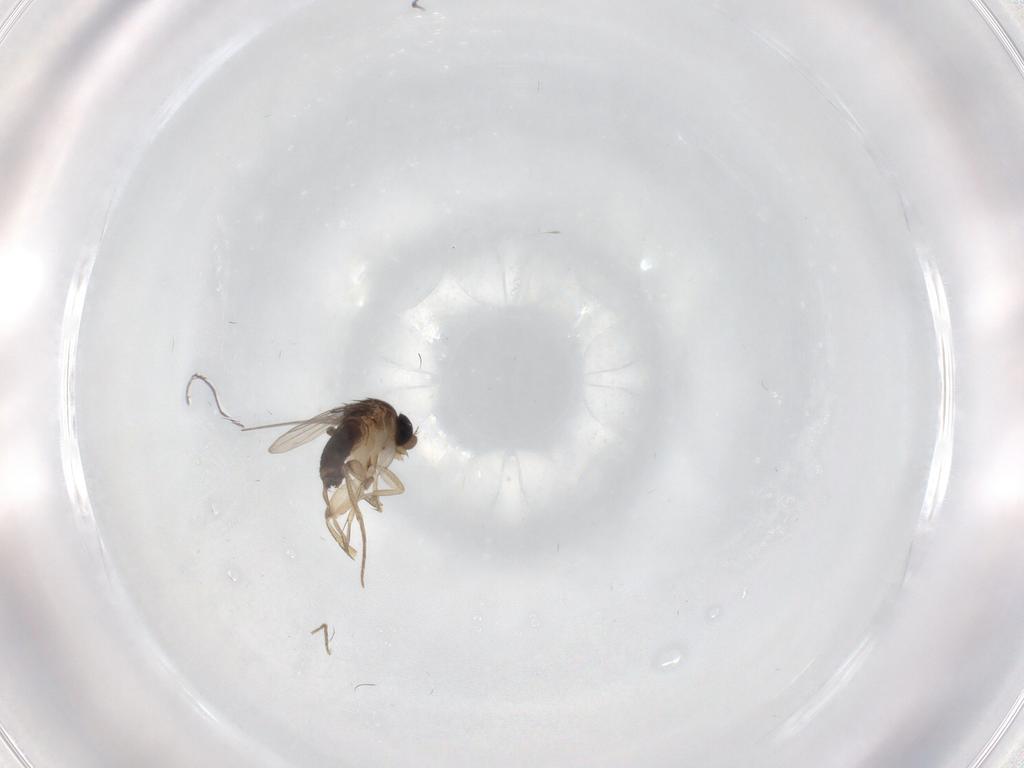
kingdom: Animalia
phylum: Arthropoda
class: Insecta
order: Diptera
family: Phoridae
